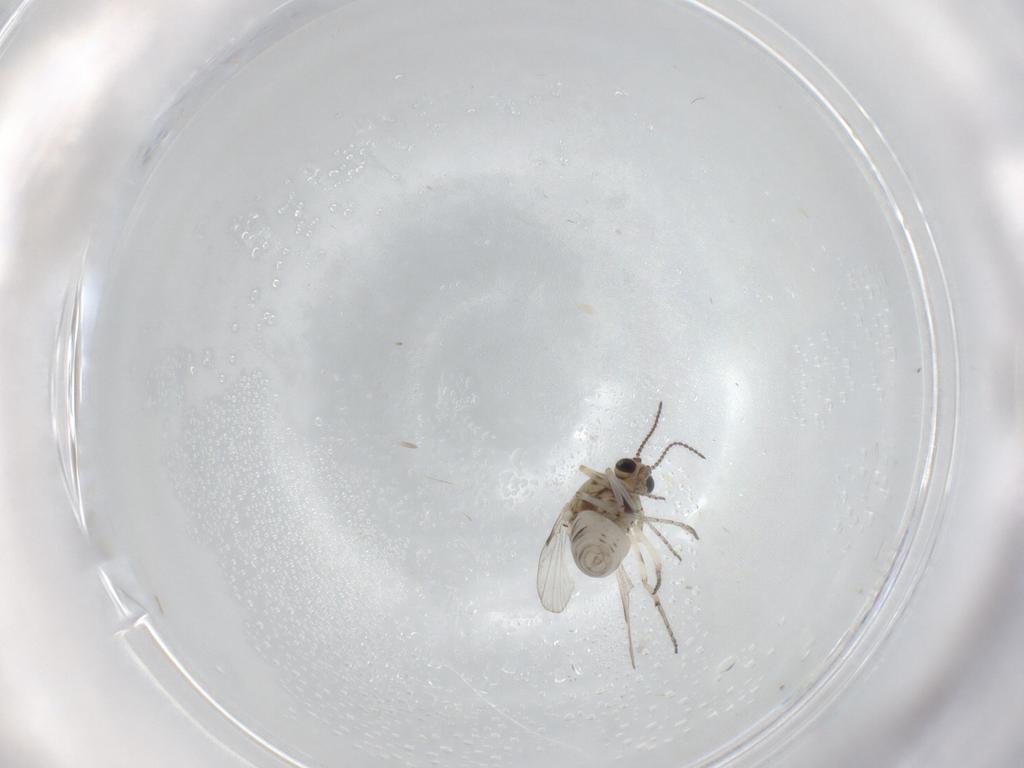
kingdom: Animalia
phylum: Arthropoda
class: Insecta
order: Diptera
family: Ceratopogonidae
